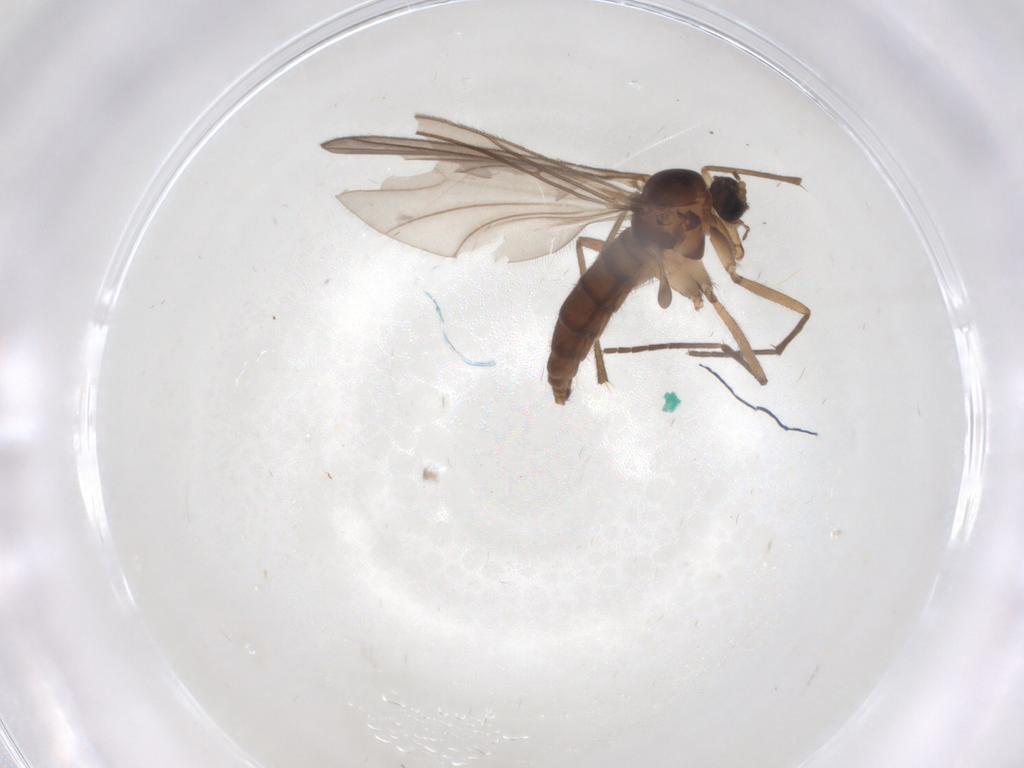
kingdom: Animalia
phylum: Arthropoda
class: Insecta
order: Diptera
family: Sciaridae
